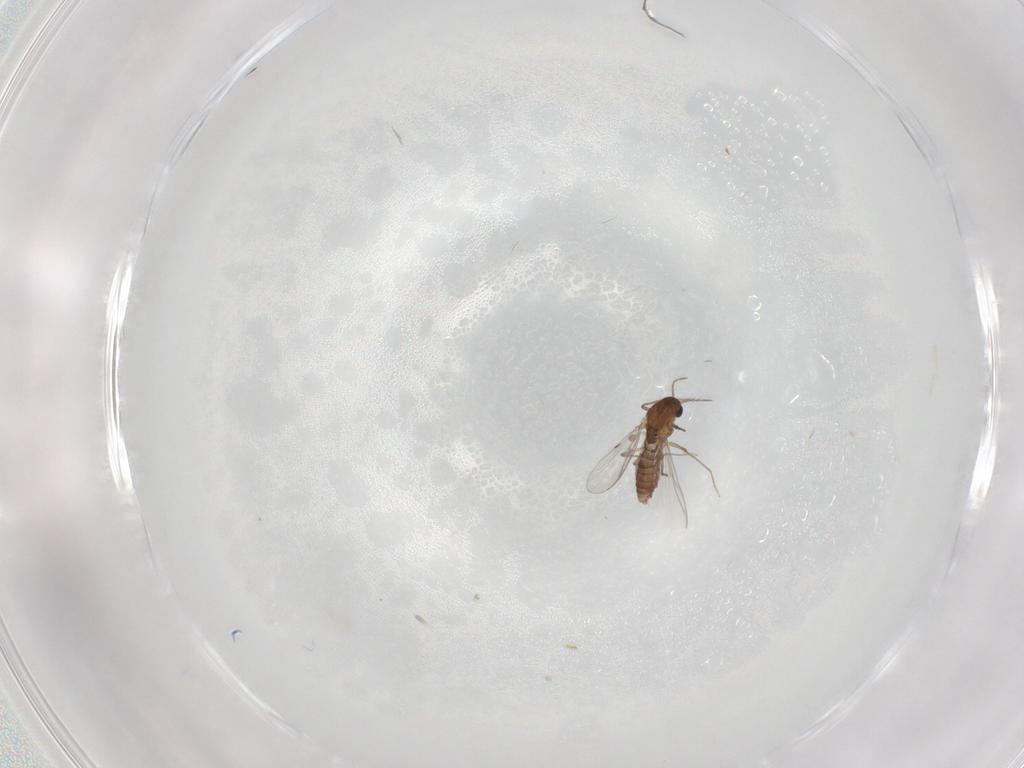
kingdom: Animalia
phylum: Arthropoda
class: Insecta
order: Diptera
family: Chironomidae
